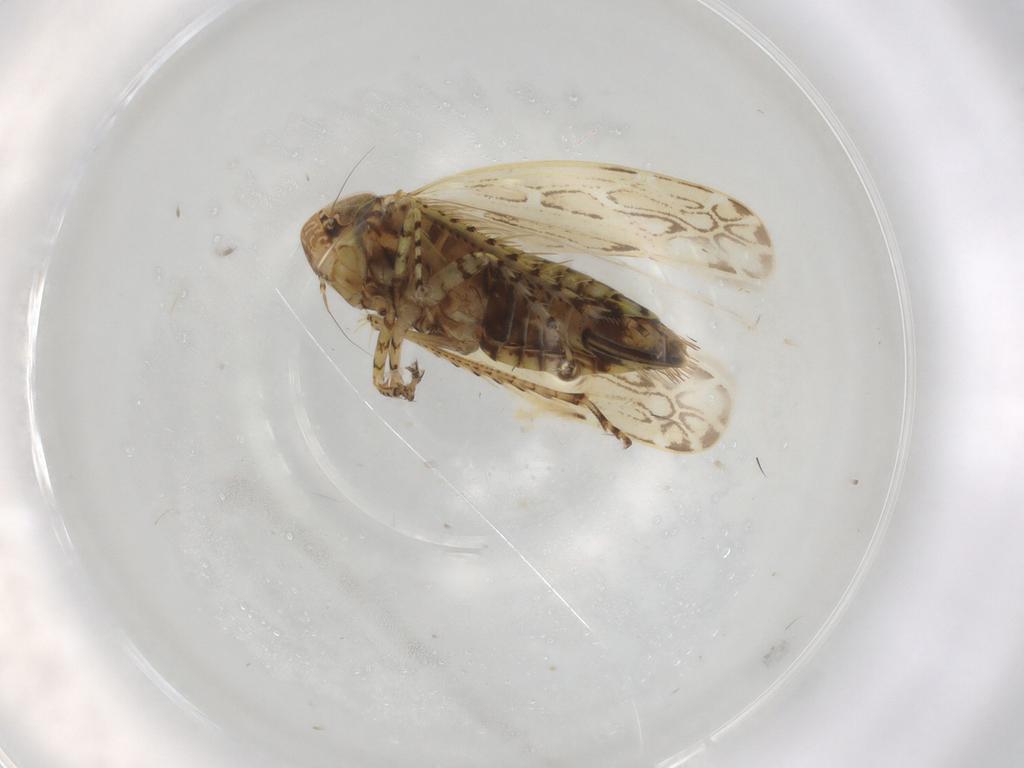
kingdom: Animalia
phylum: Arthropoda
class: Insecta
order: Hemiptera
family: Cicadellidae
